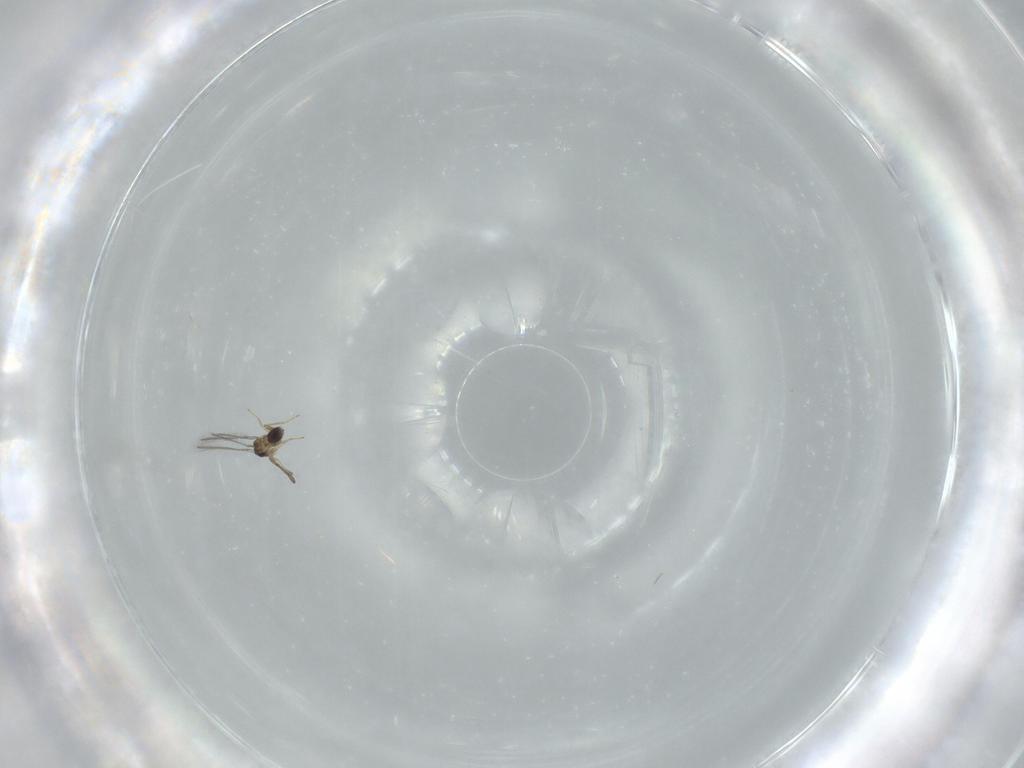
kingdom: Animalia
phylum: Arthropoda
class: Insecta
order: Hymenoptera
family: Mymaridae
